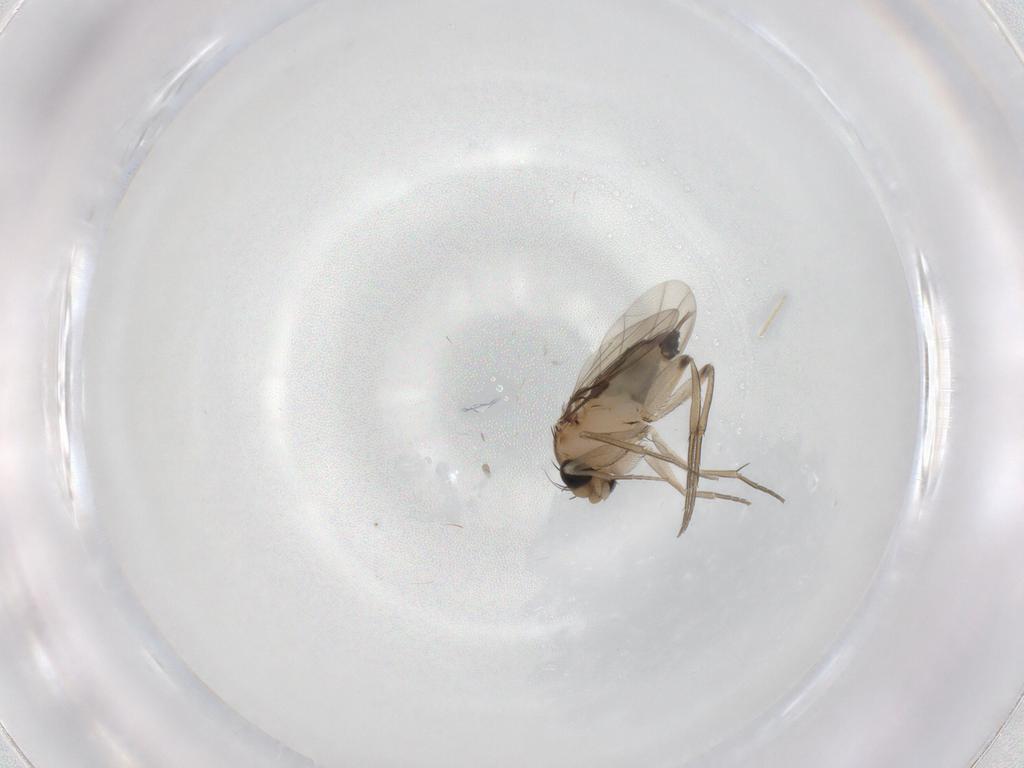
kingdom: Animalia
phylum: Arthropoda
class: Insecta
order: Diptera
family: Phoridae
